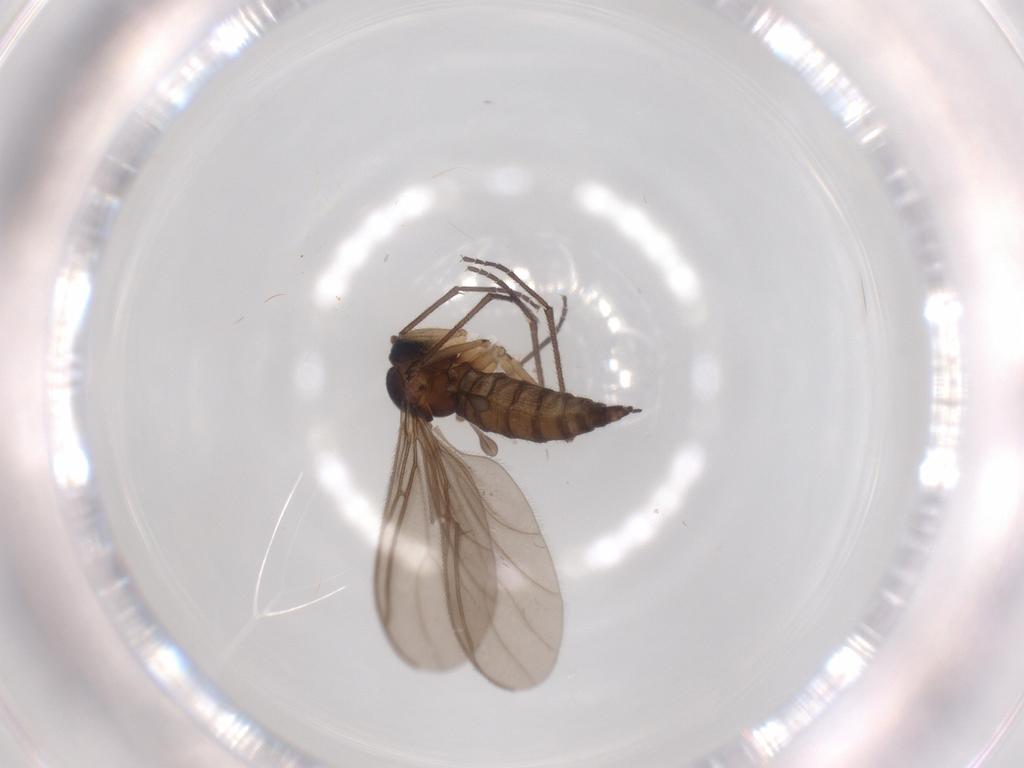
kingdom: Animalia
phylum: Arthropoda
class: Insecta
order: Diptera
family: Sciaridae
